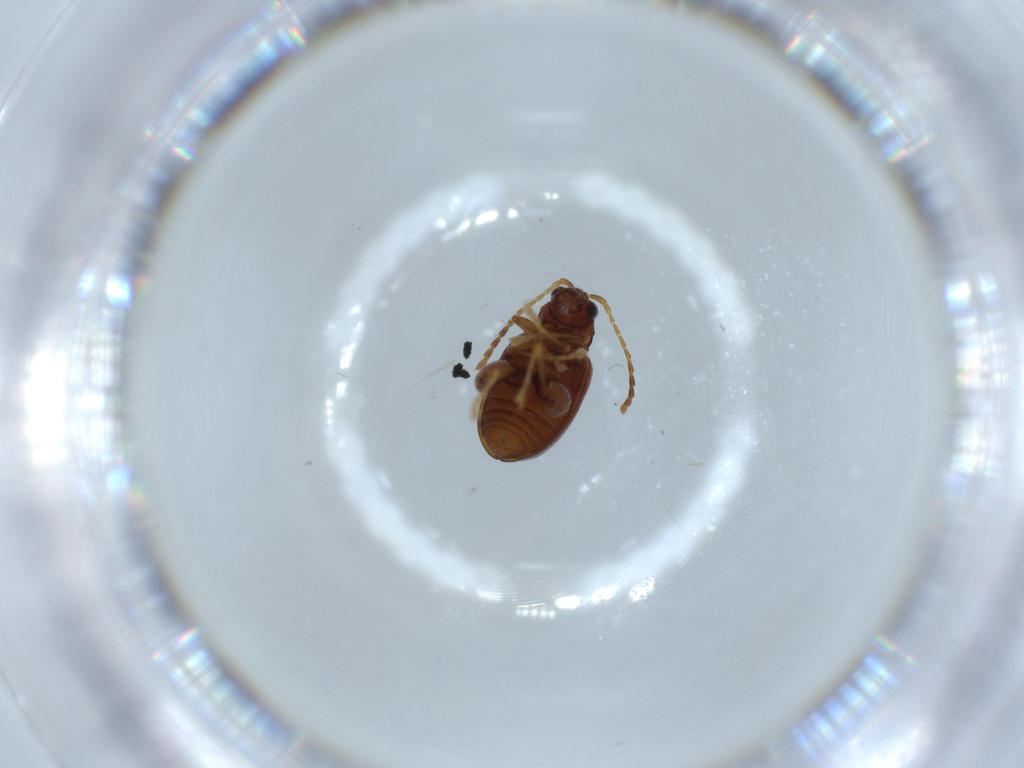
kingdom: Animalia
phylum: Arthropoda
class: Insecta
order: Coleoptera
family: Chrysomelidae
